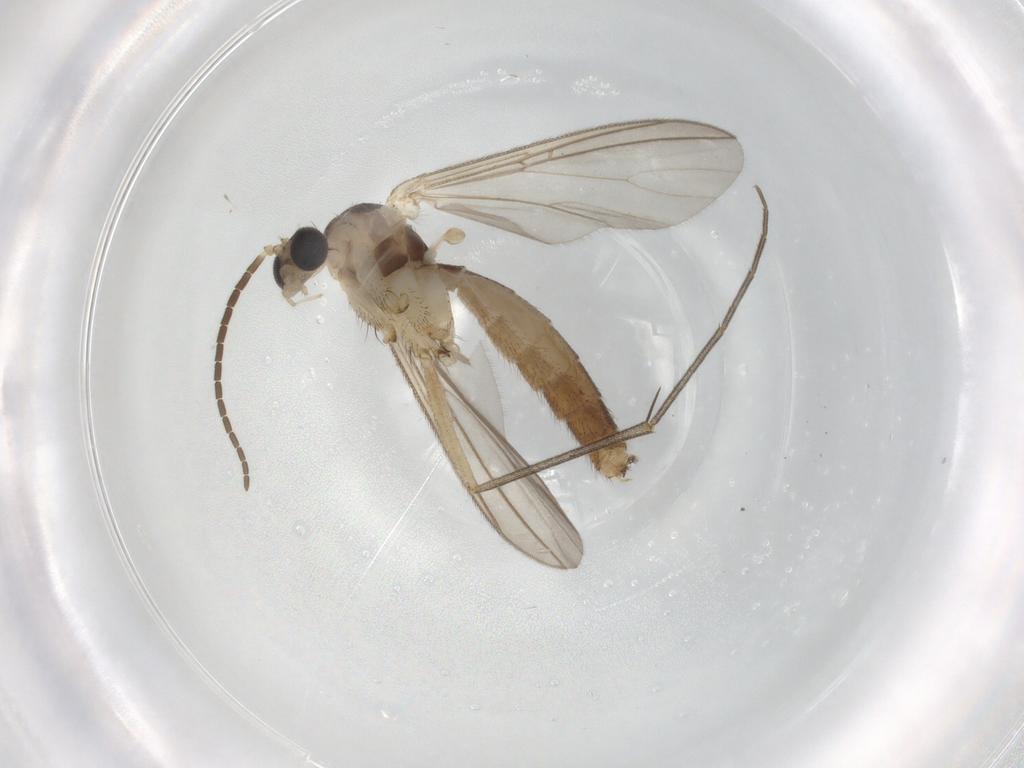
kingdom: Animalia
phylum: Arthropoda
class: Insecta
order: Diptera
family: Mycetophilidae
